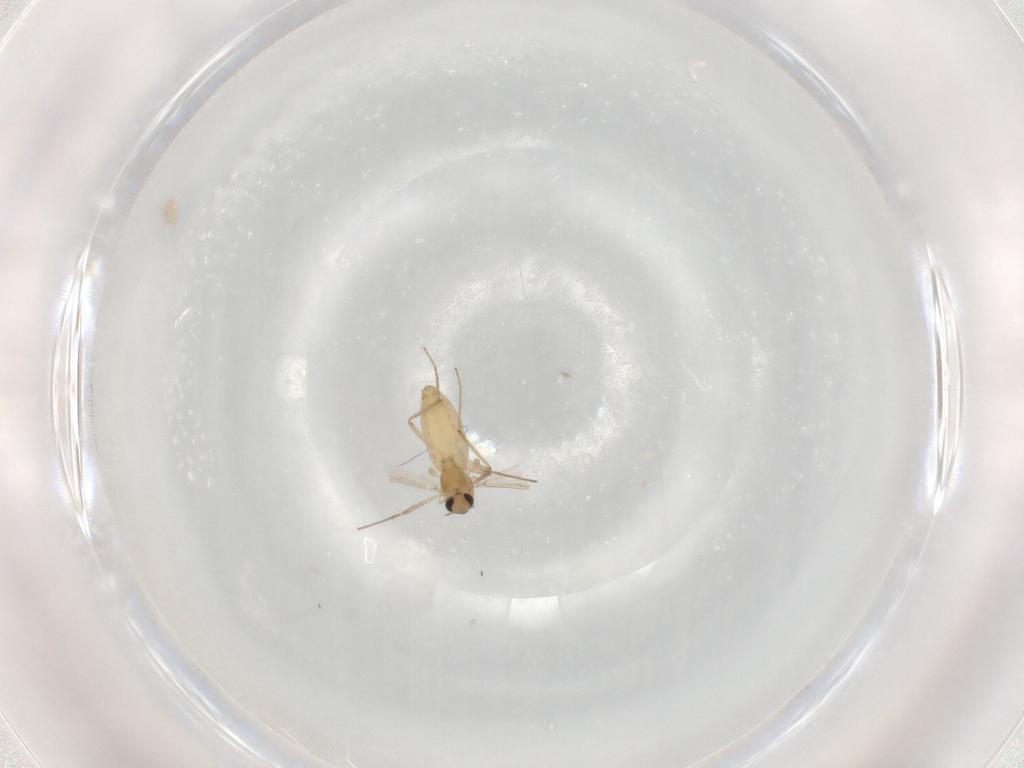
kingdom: Animalia
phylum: Arthropoda
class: Insecta
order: Diptera
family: Chironomidae
